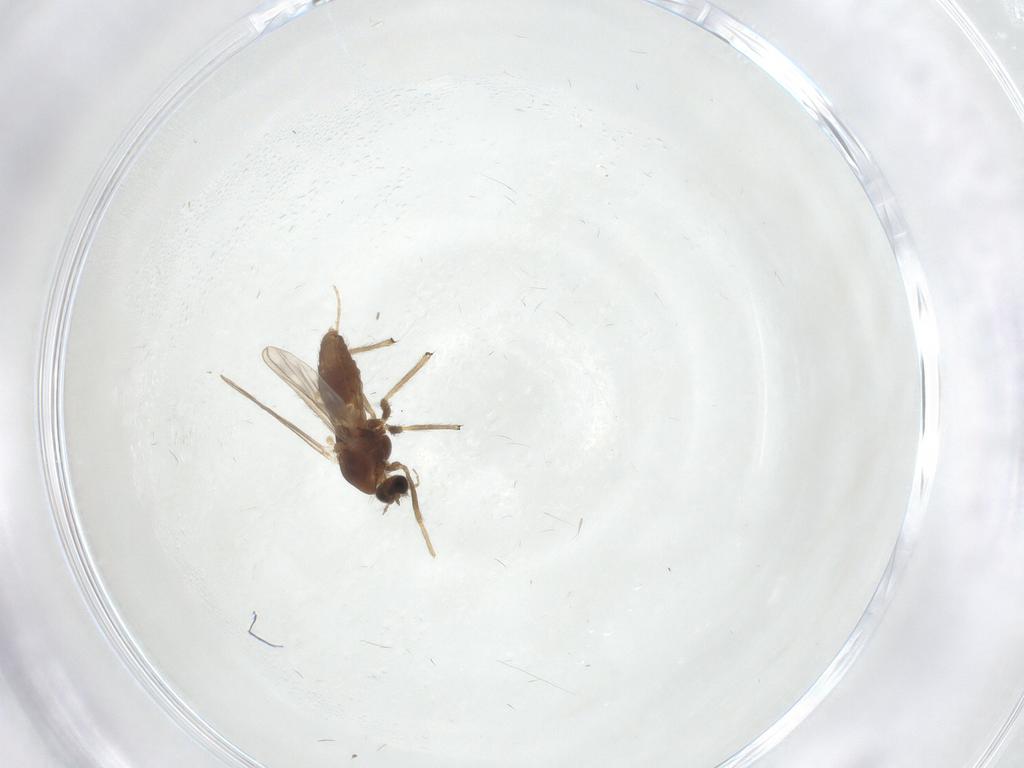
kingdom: Animalia
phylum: Arthropoda
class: Insecta
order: Diptera
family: Chironomidae
